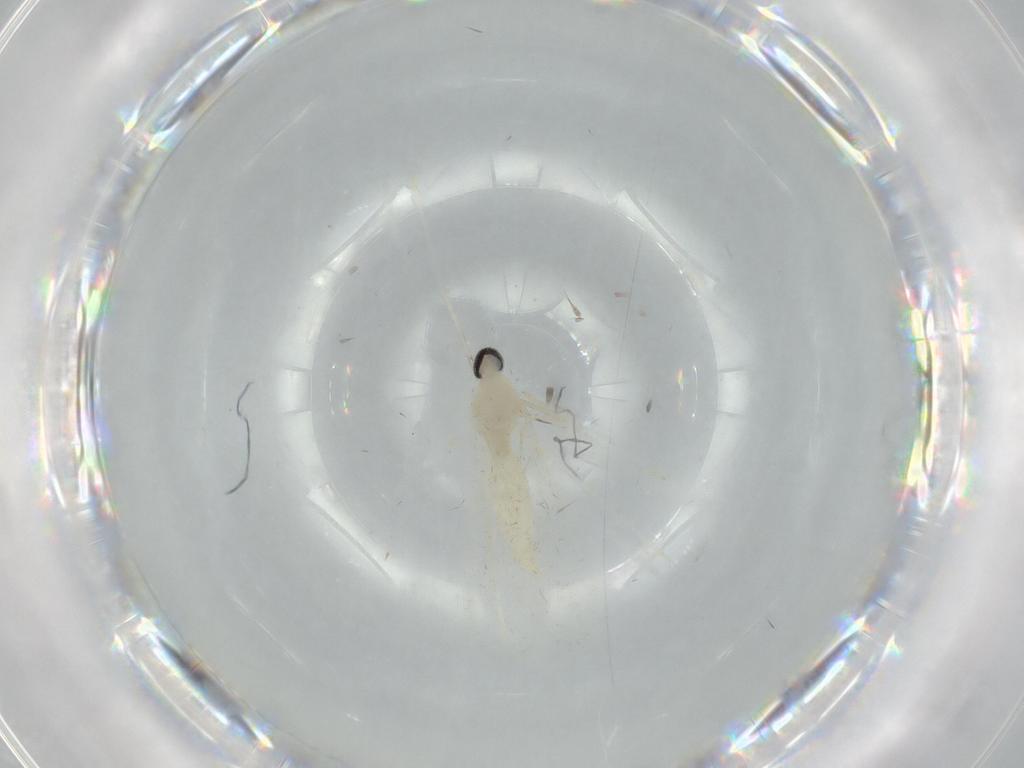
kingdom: Animalia
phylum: Arthropoda
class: Insecta
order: Diptera
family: Cecidomyiidae
